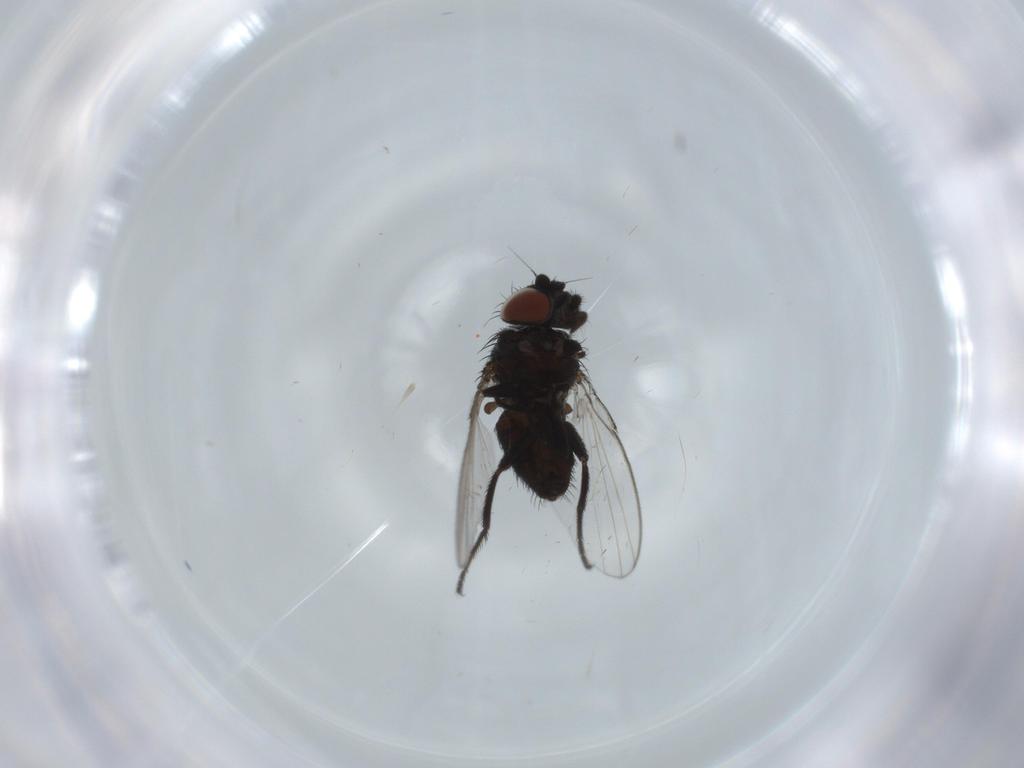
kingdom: Animalia
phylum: Arthropoda
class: Insecta
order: Diptera
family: Milichiidae
